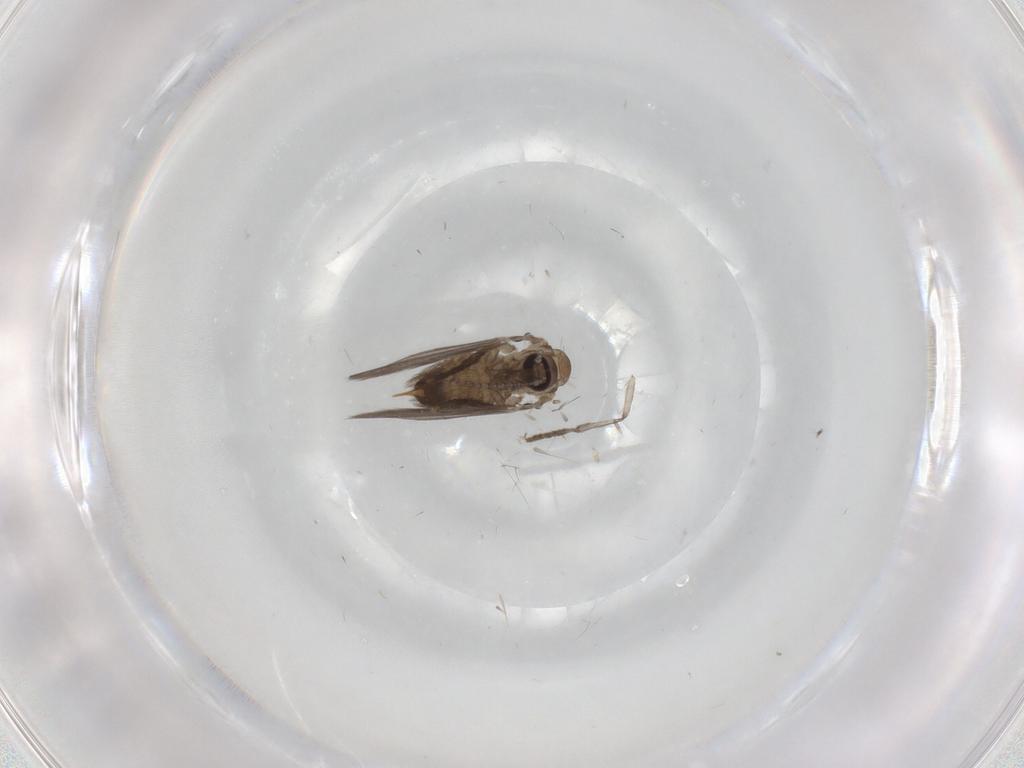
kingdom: Animalia
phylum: Arthropoda
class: Insecta
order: Diptera
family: Ceratopogonidae
